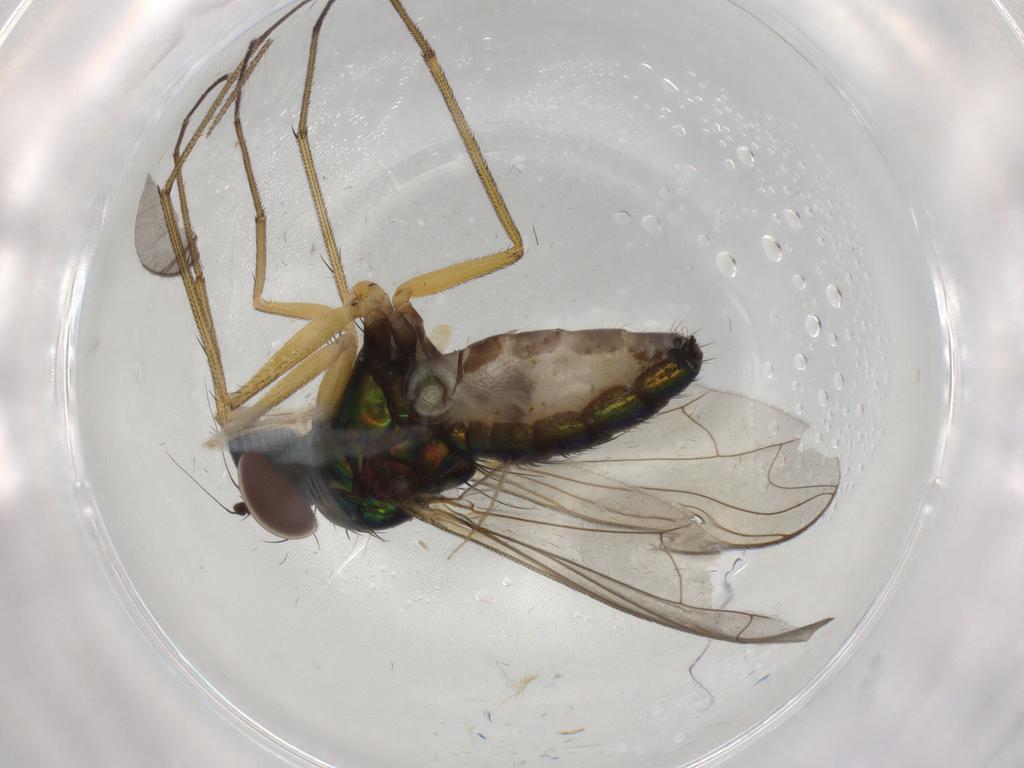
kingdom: Animalia
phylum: Arthropoda
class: Insecta
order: Diptera
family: Dolichopodidae
